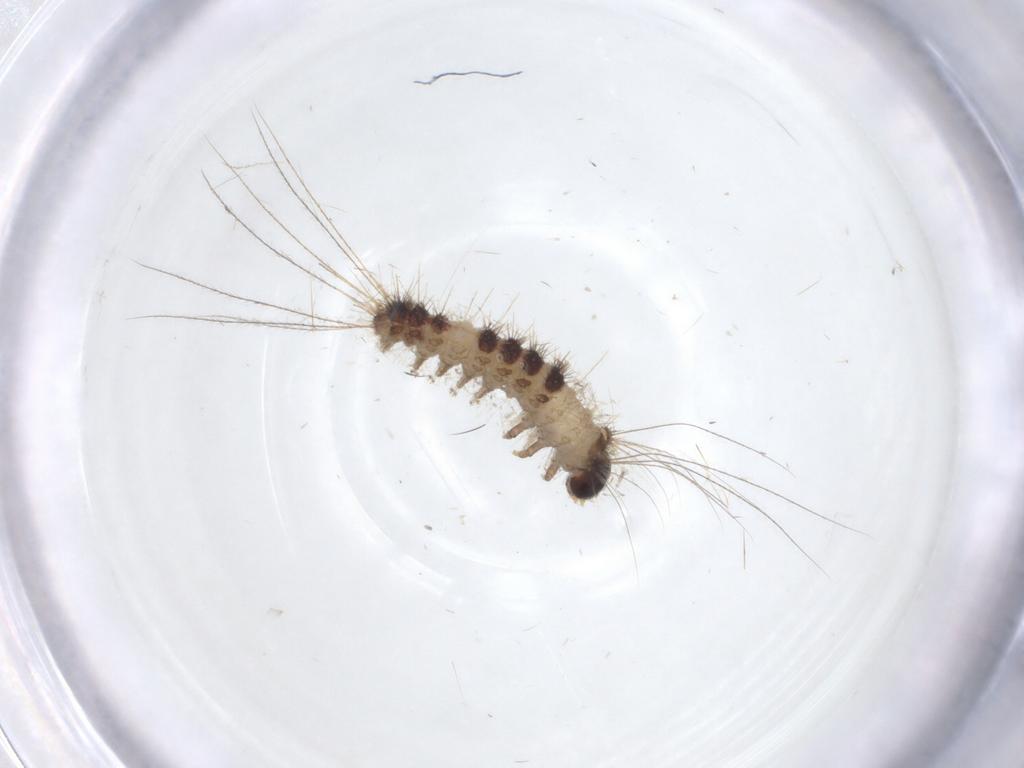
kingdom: Animalia
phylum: Arthropoda
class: Insecta
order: Lepidoptera
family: Erebidae
